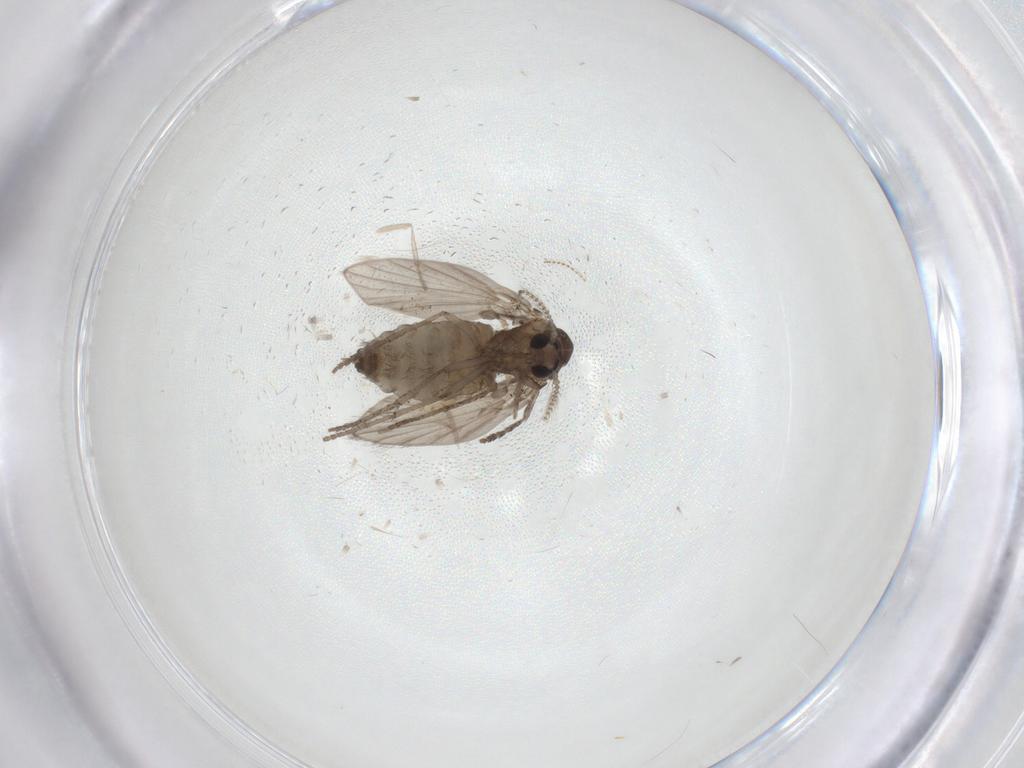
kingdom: Animalia
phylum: Arthropoda
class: Insecta
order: Diptera
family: Psychodidae
